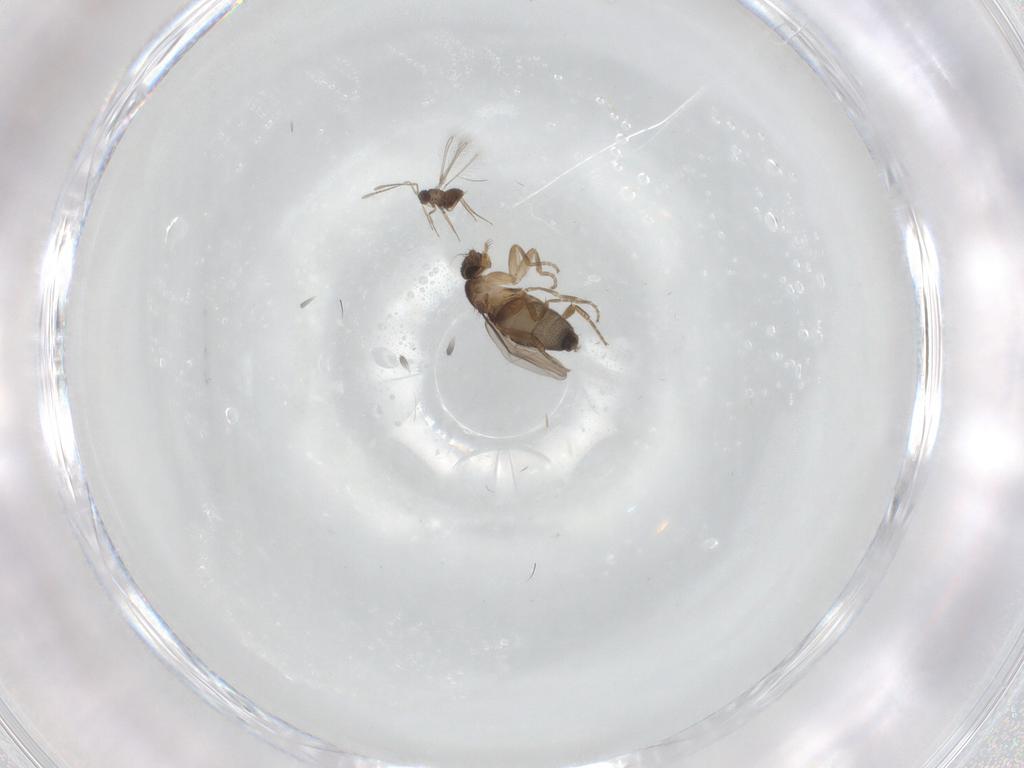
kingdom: Animalia
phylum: Arthropoda
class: Insecta
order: Diptera
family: Phoridae
